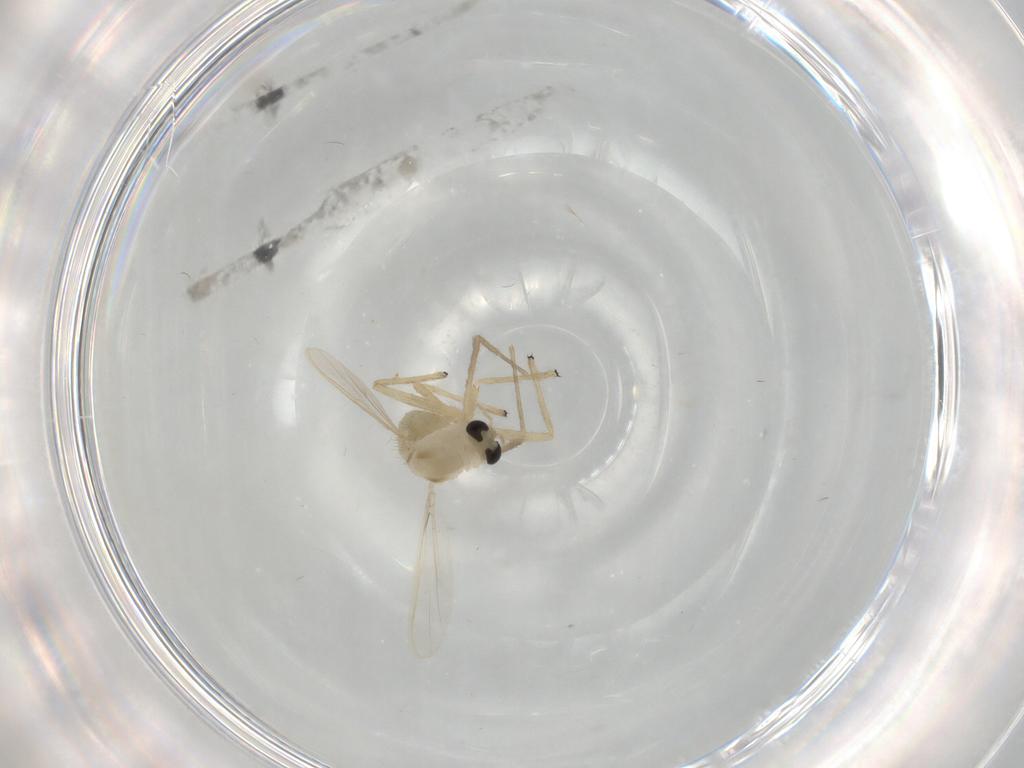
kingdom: Animalia
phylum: Arthropoda
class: Insecta
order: Diptera
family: Chironomidae
